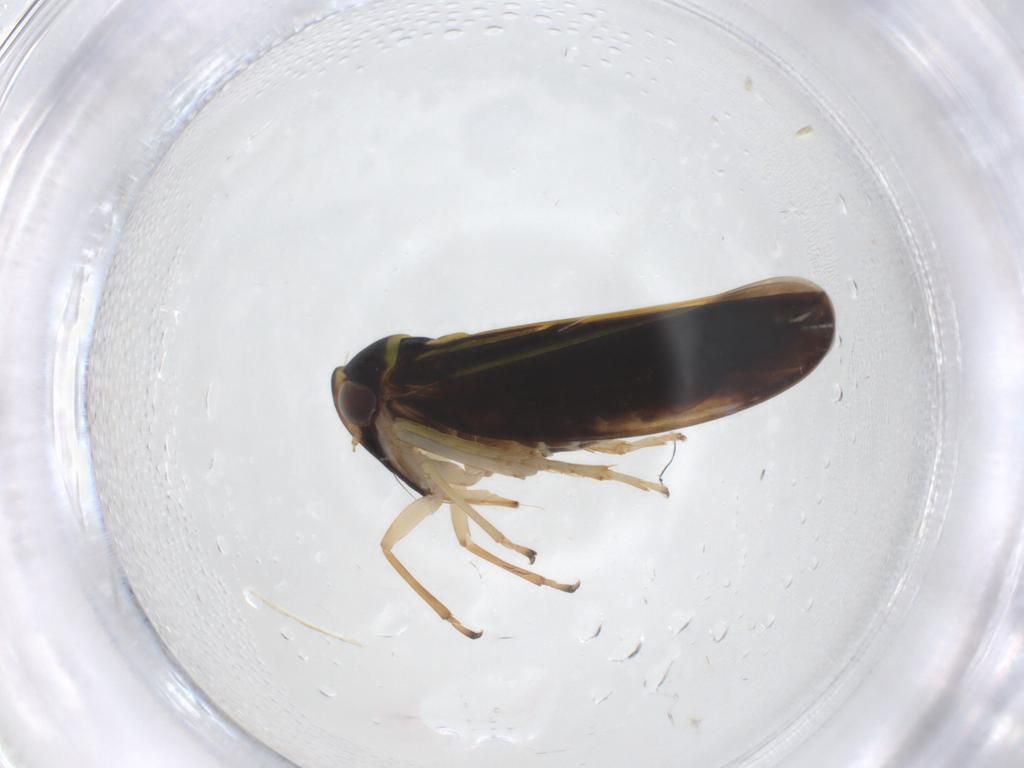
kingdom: Animalia
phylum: Arthropoda
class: Insecta
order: Hemiptera
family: Cicadellidae
